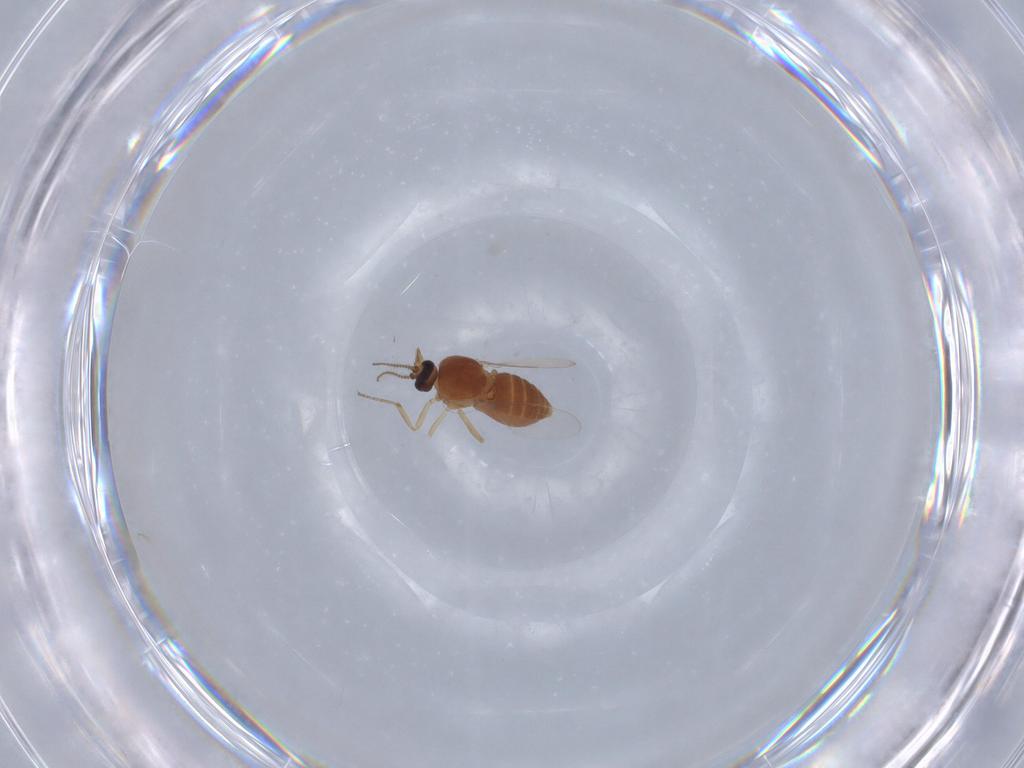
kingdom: Animalia
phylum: Arthropoda
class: Insecta
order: Diptera
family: Ceratopogonidae
